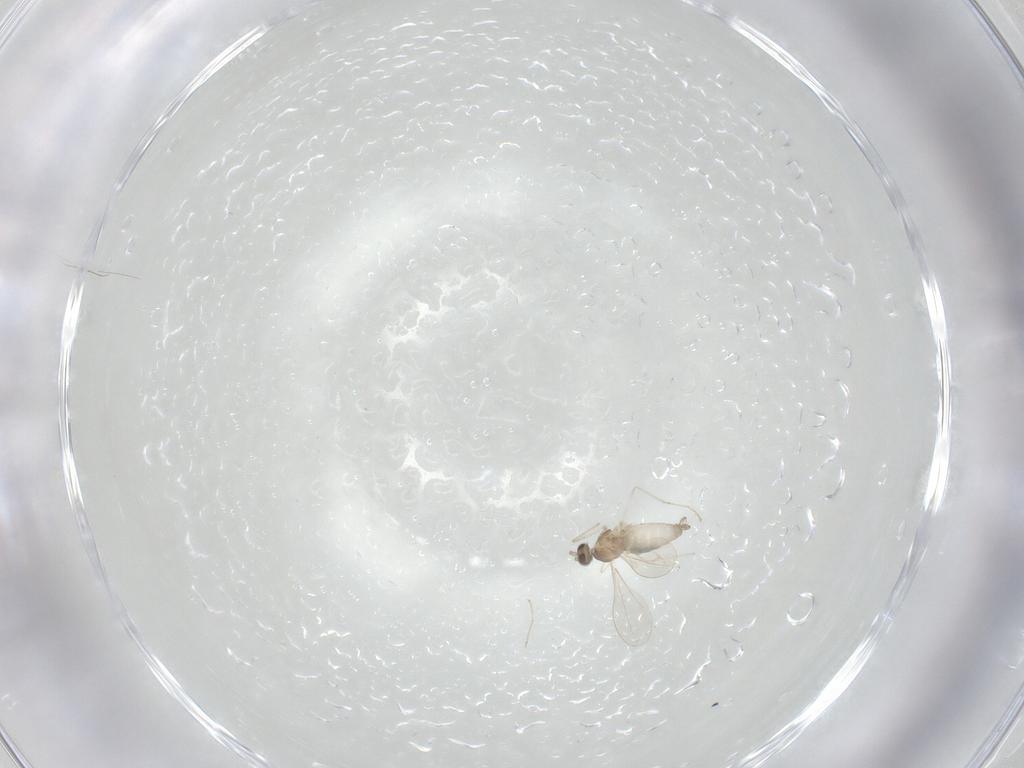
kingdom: Animalia
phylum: Arthropoda
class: Insecta
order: Diptera
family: Cecidomyiidae
